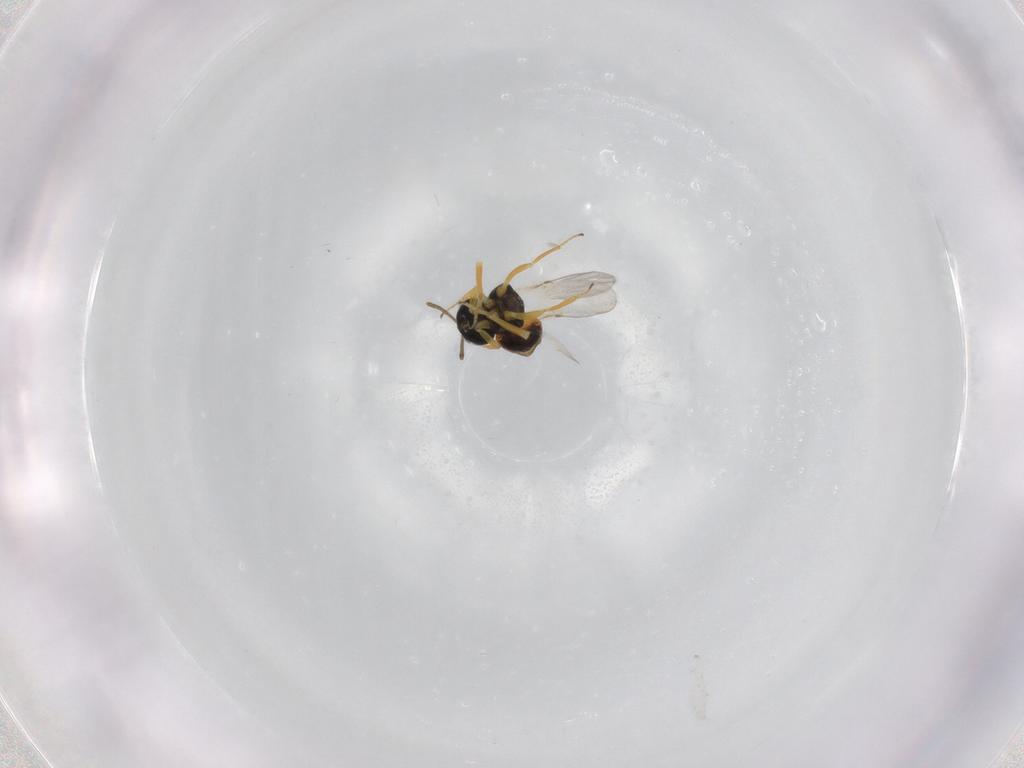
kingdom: Animalia
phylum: Arthropoda
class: Insecta
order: Hymenoptera
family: Encyrtidae
